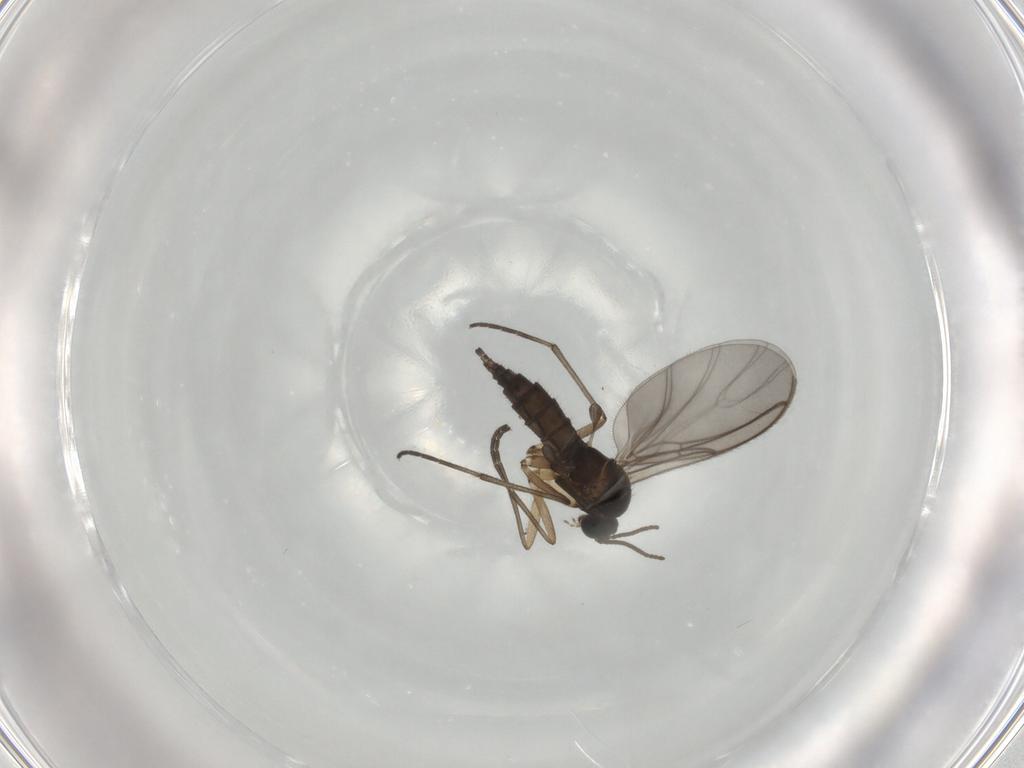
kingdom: Animalia
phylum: Arthropoda
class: Insecta
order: Diptera
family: Sciaridae
